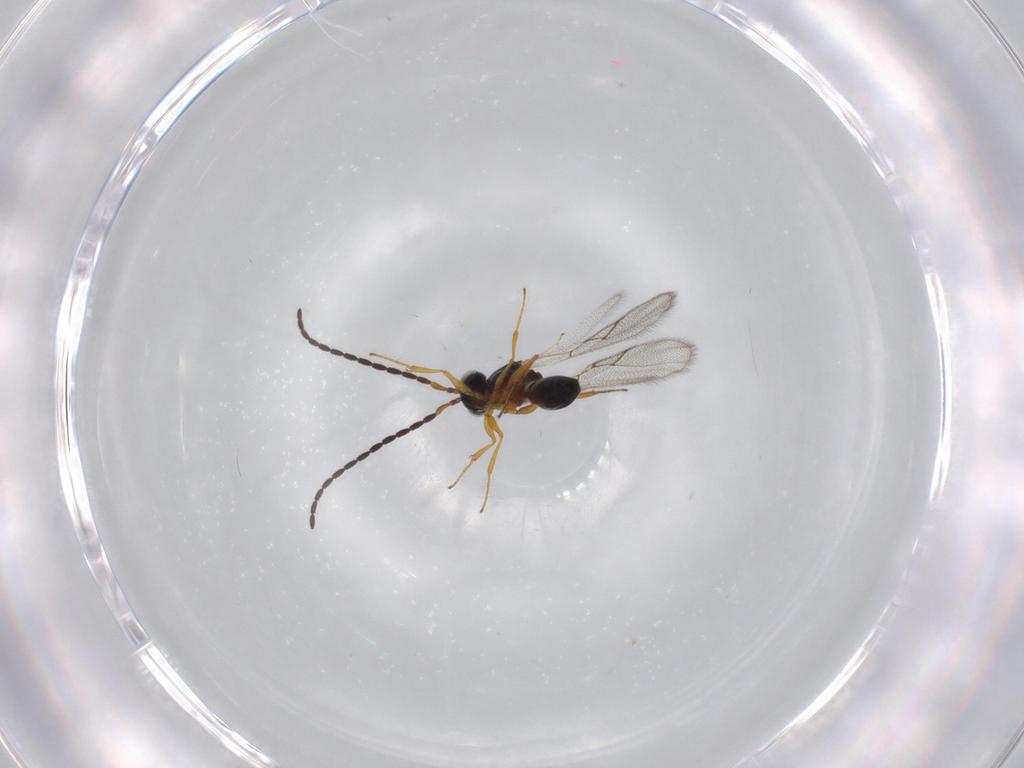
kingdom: Animalia
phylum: Arthropoda
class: Insecta
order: Hymenoptera
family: Figitidae
